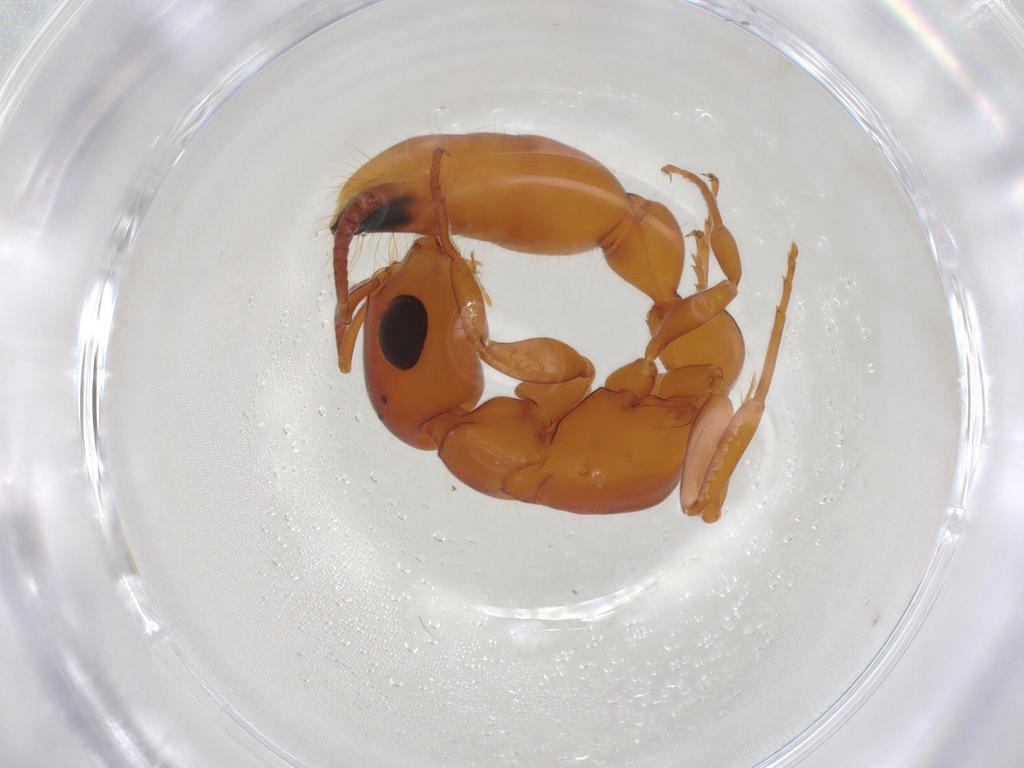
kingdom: Animalia
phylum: Arthropoda
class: Insecta
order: Hymenoptera
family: Formicidae
